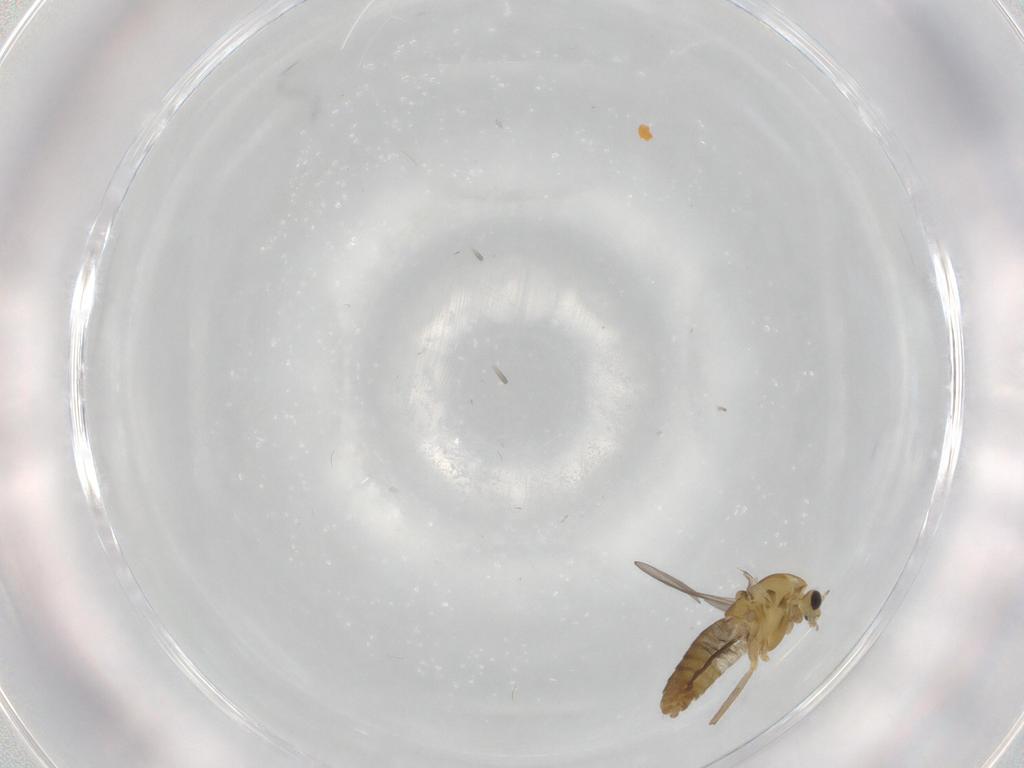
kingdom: Animalia
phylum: Arthropoda
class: Insecta
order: Diptera
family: Chironomidae
